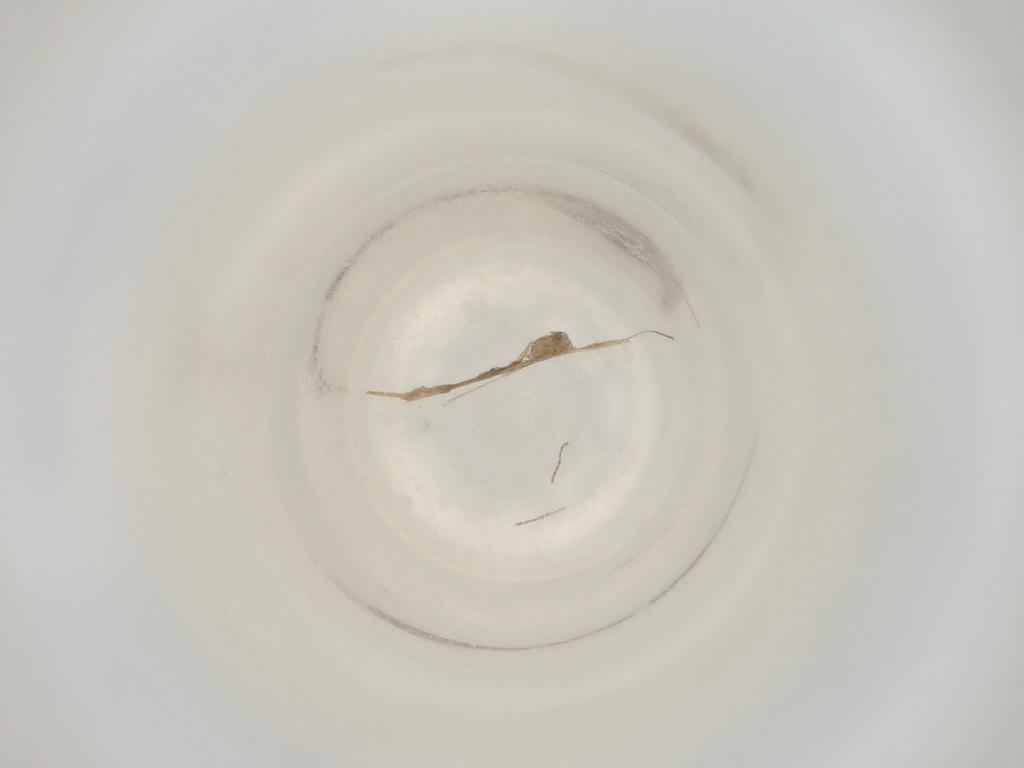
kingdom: Animalia
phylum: Arthropoda
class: Insecta
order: Diptera
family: Cecidomyiidae
